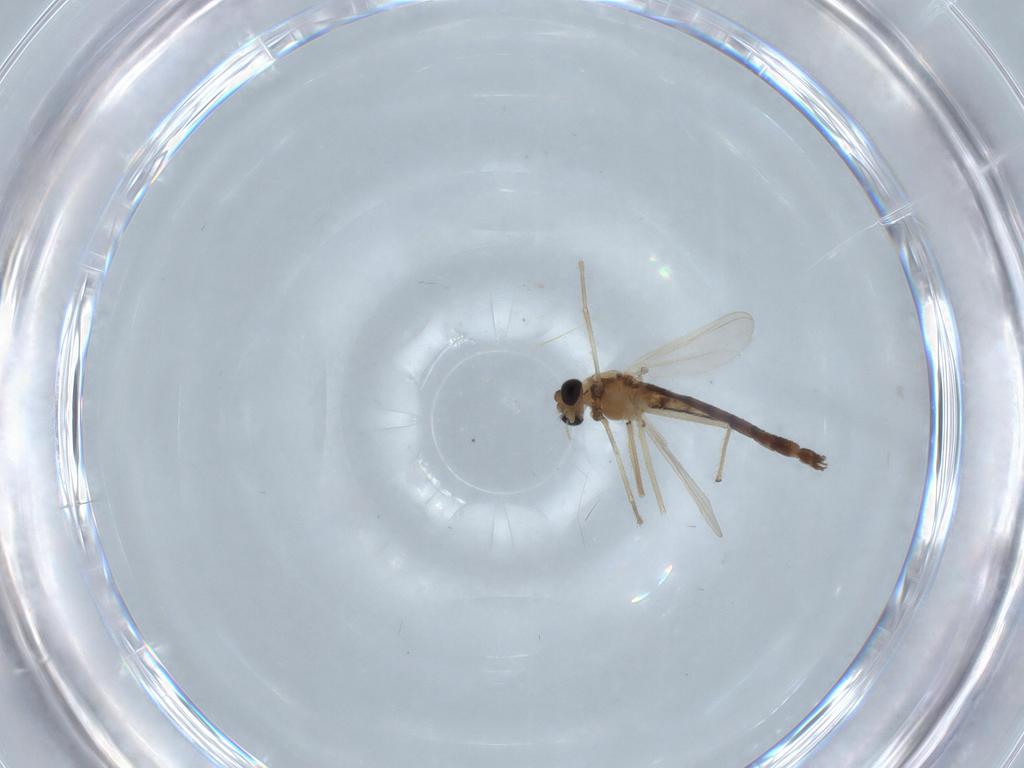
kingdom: Animalia
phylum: Arthropoda
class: Insecta
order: Diptera
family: Chironomidae
